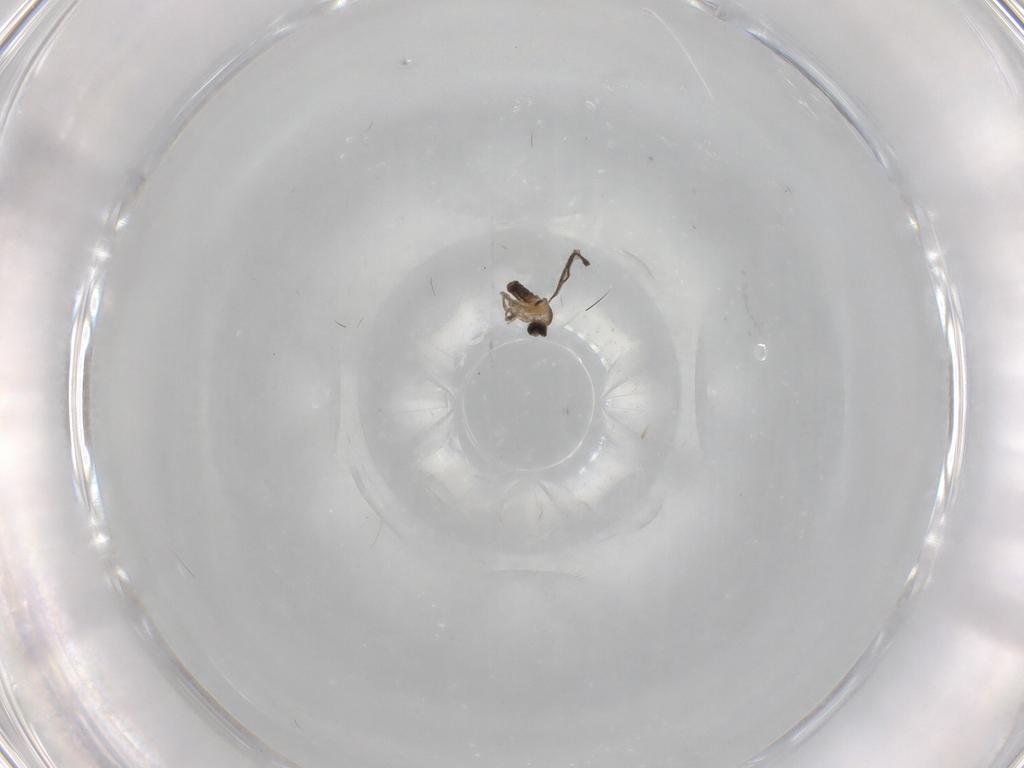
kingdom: Animalia
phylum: Arthropoda
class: Insecta
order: Diptera
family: Cecidomyiidae
